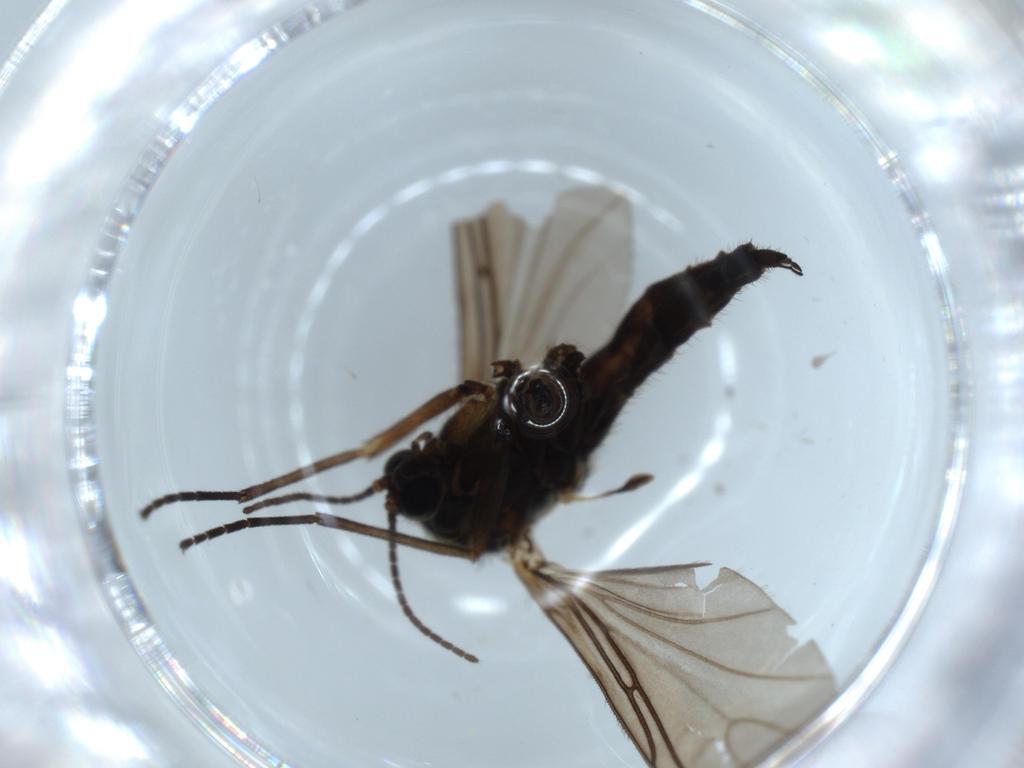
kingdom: Animalia
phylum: Arthropoda
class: Insecta
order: Diptera
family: Sciaridae
